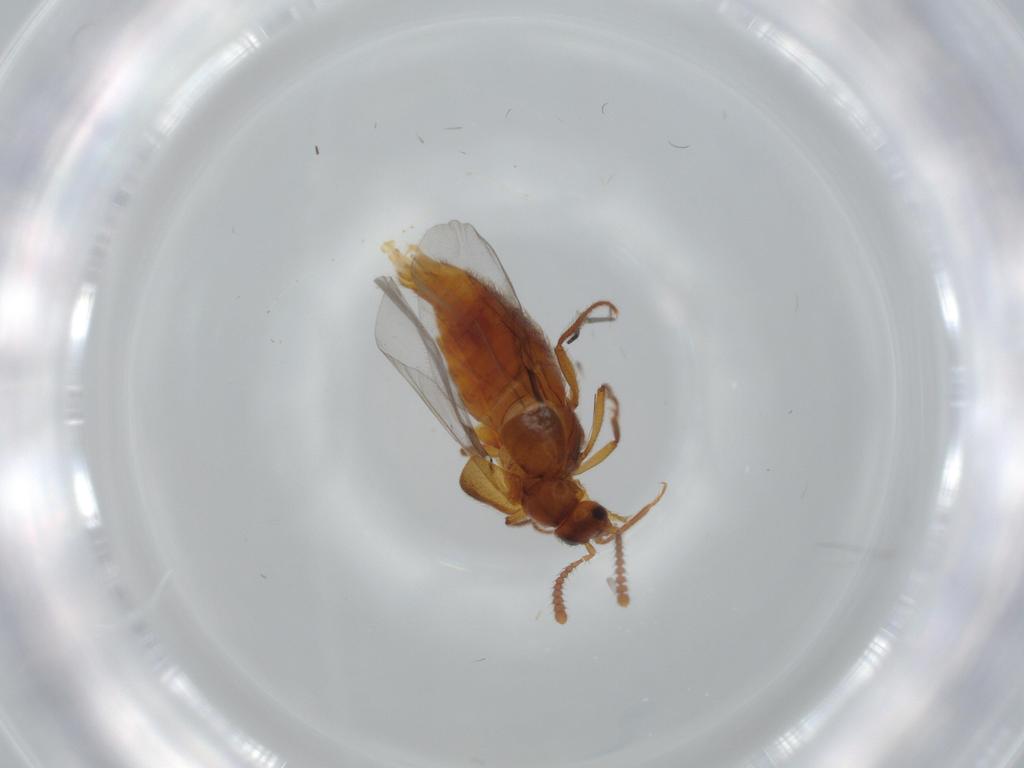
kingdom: Animalia
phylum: Arthropoda
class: Insecta
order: Coleoptera
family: Staphylinidae
